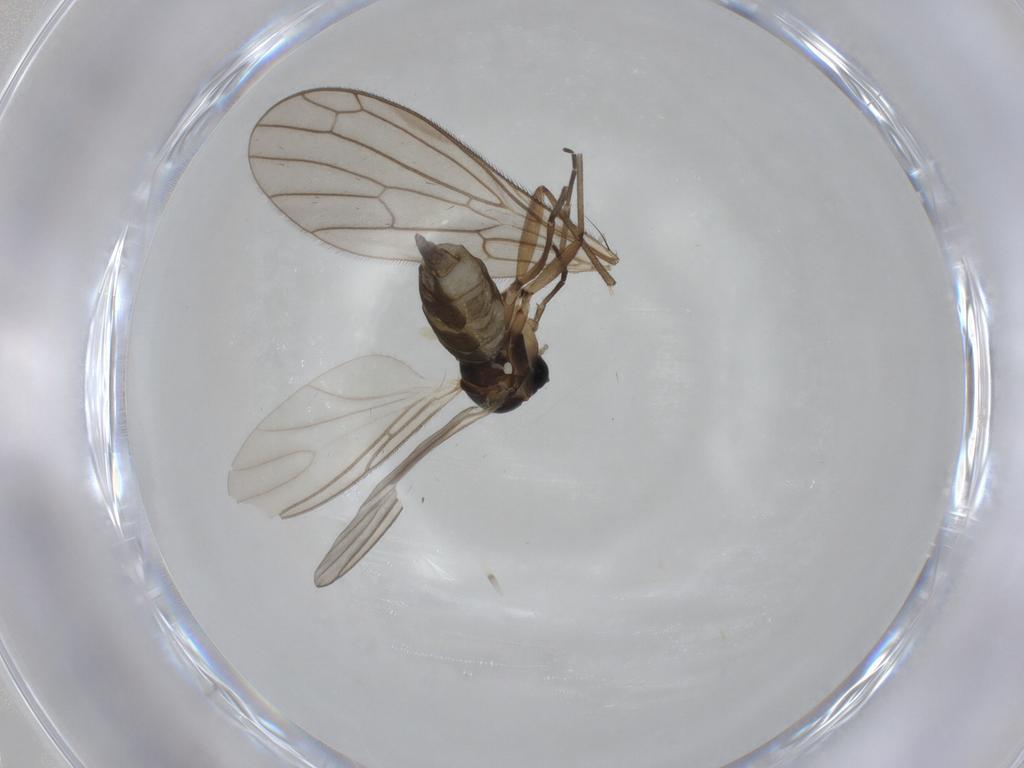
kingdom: Animalia
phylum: Arthropoda
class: Insecta
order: Diptera
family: Empididae
